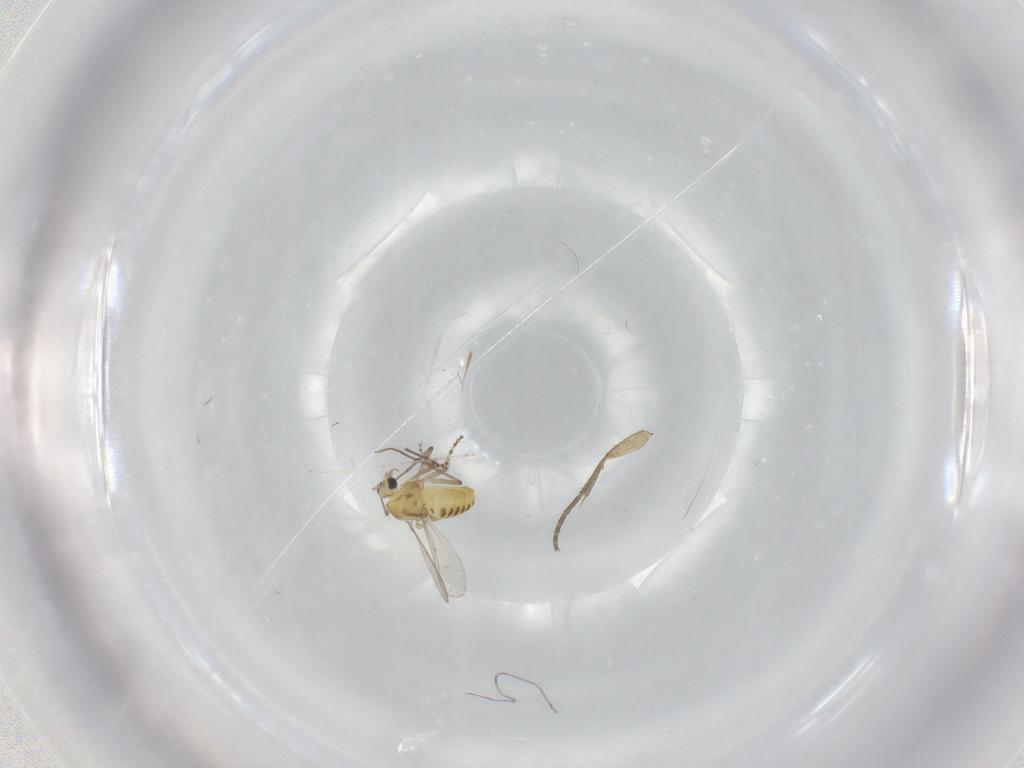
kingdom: Animalia
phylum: Arthropoda
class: Insecta
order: Diptera
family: Chironomidae
